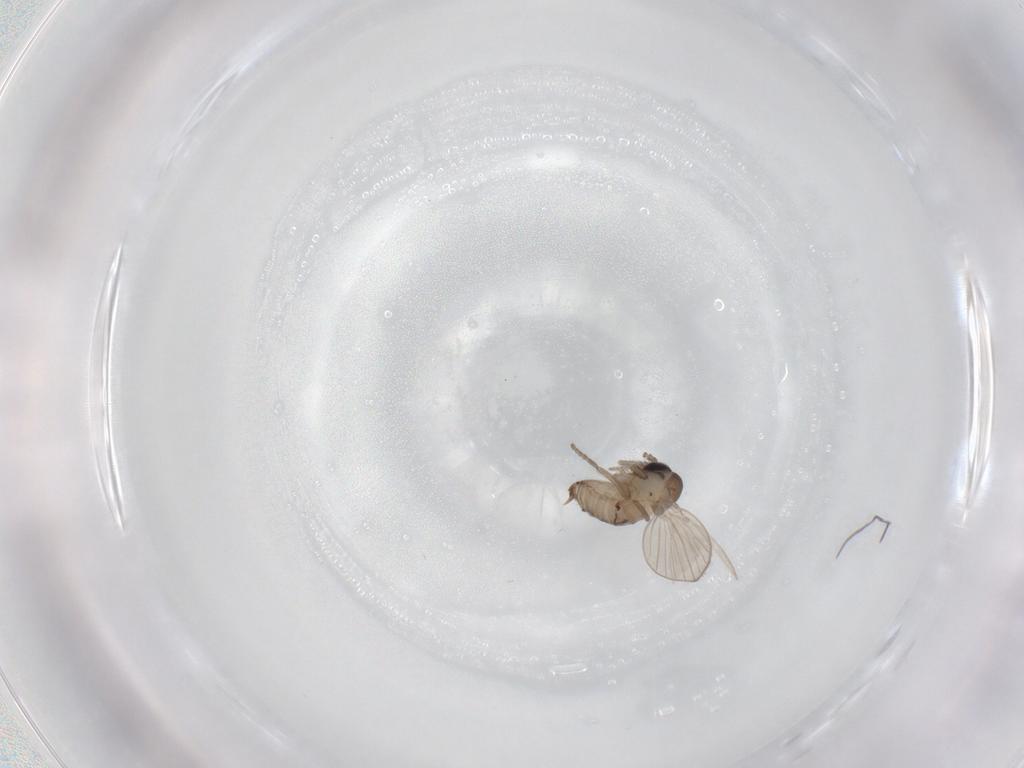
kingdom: Animalia
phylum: Arthropoda
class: Insecta
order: Diptera
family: Psychodidae
